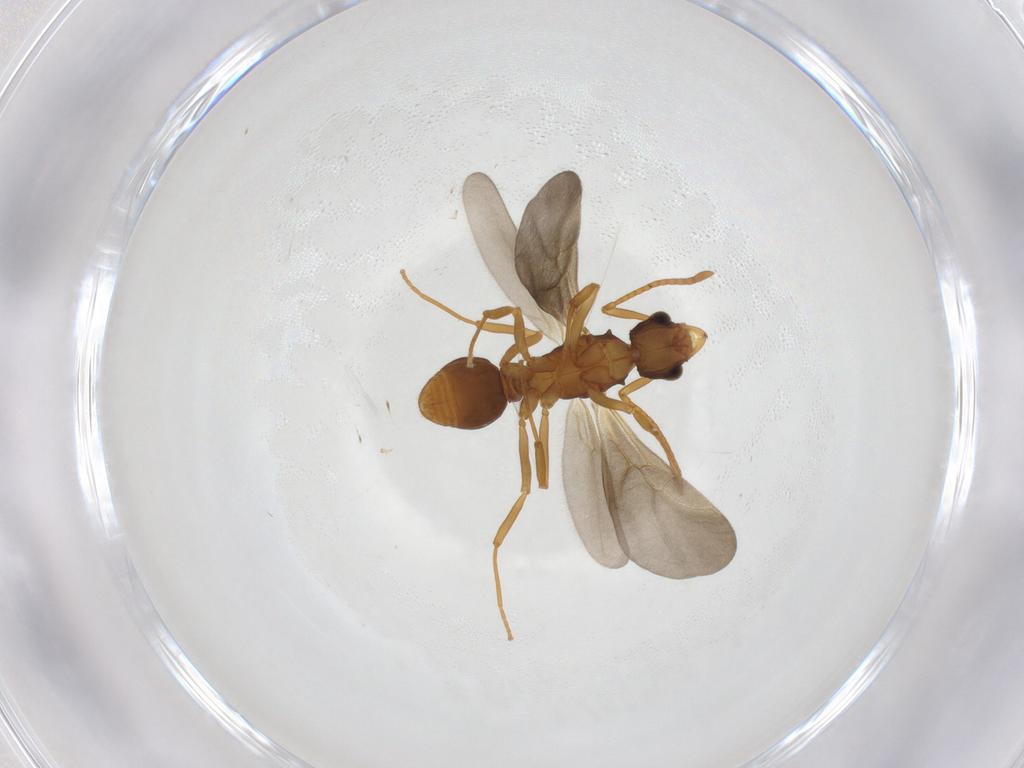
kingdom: Animalia
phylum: Arthropoda
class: Insecta
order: Hymenoptera
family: Formicidae
